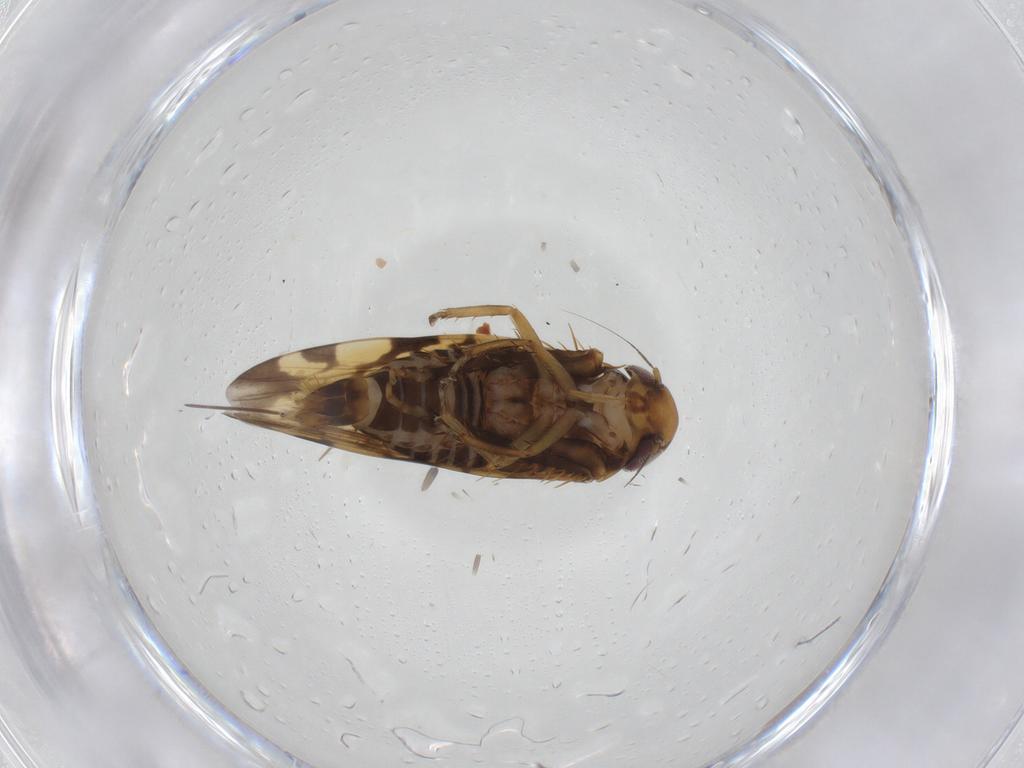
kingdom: Animalia
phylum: Arthropoda
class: Insecta
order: Hemiptera
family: Cicadellidae
